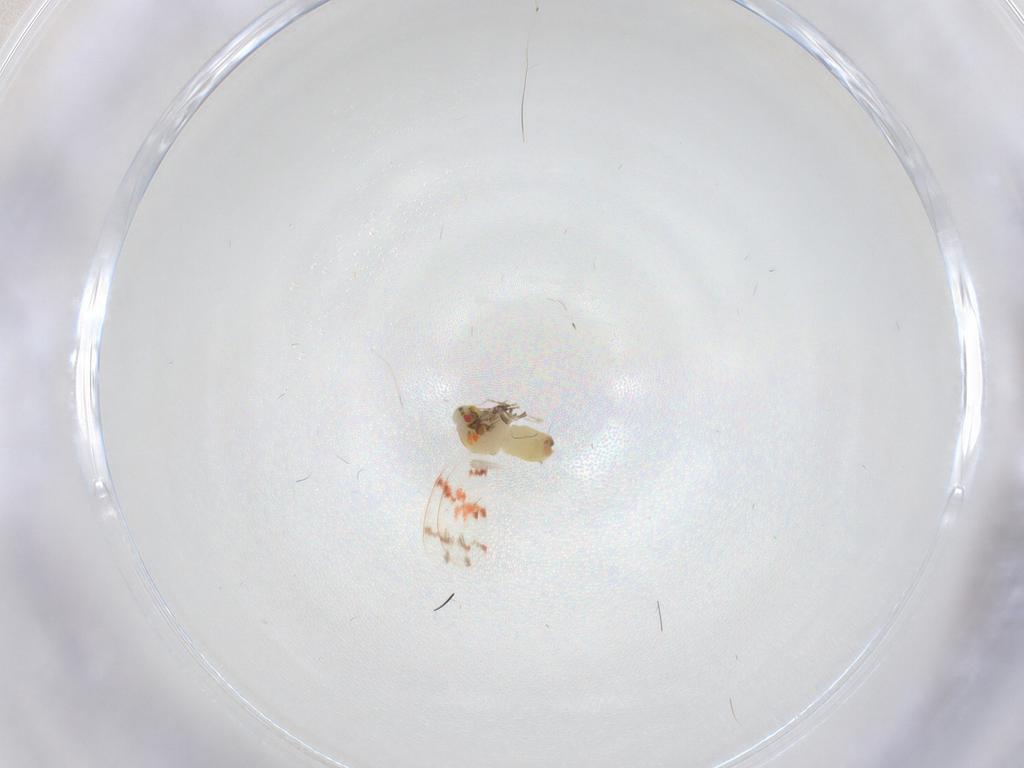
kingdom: Animalia
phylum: Arthropoda
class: Insecta
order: Hemiptera
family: Aleyrodidae
